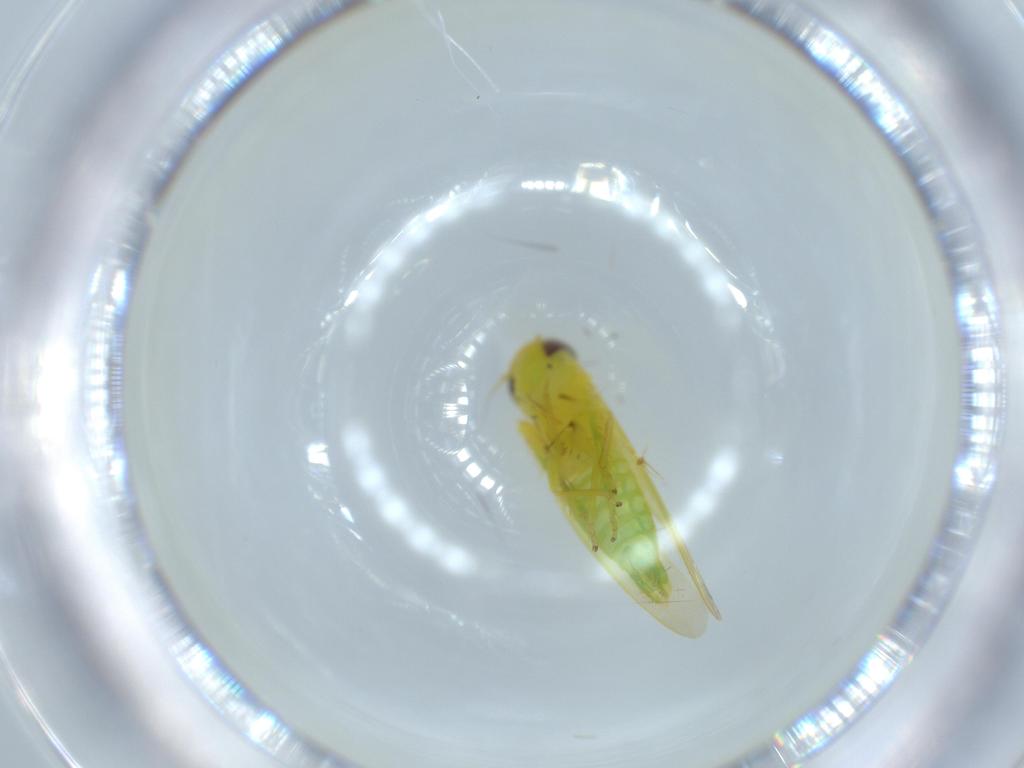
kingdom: Animalia
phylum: Arthropoda
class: Insecta
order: Hemiptera
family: Cicadellidae
